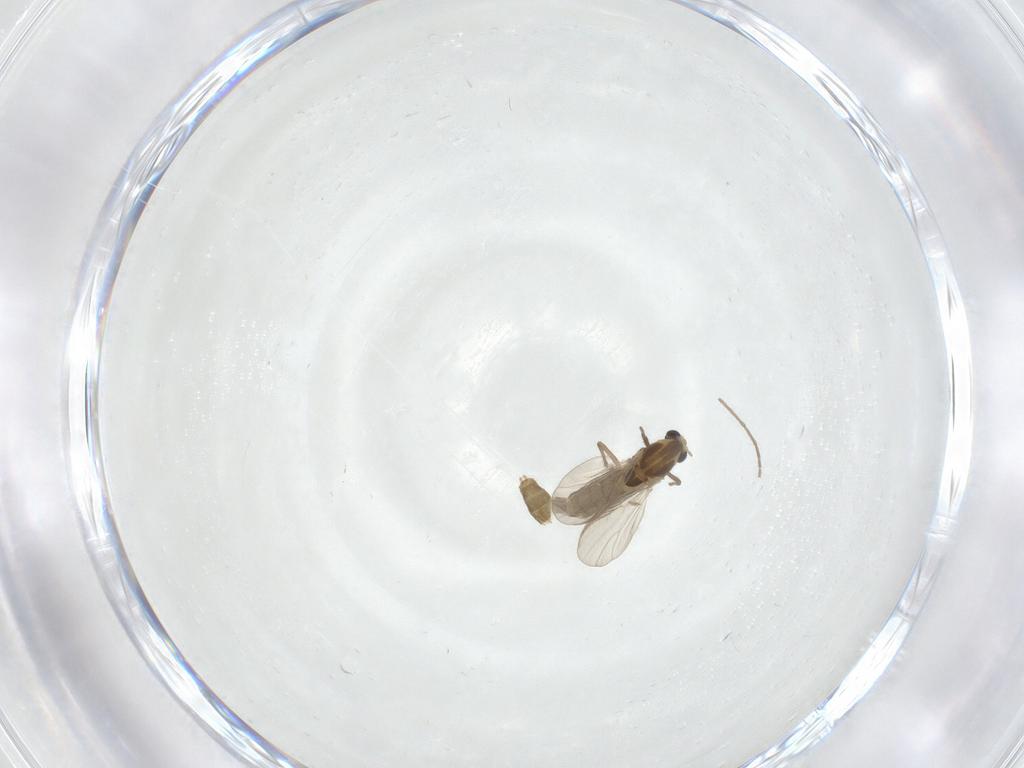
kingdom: Animalia
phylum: Arthropoda
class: Insecta
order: Diptera
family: Chironomidae
